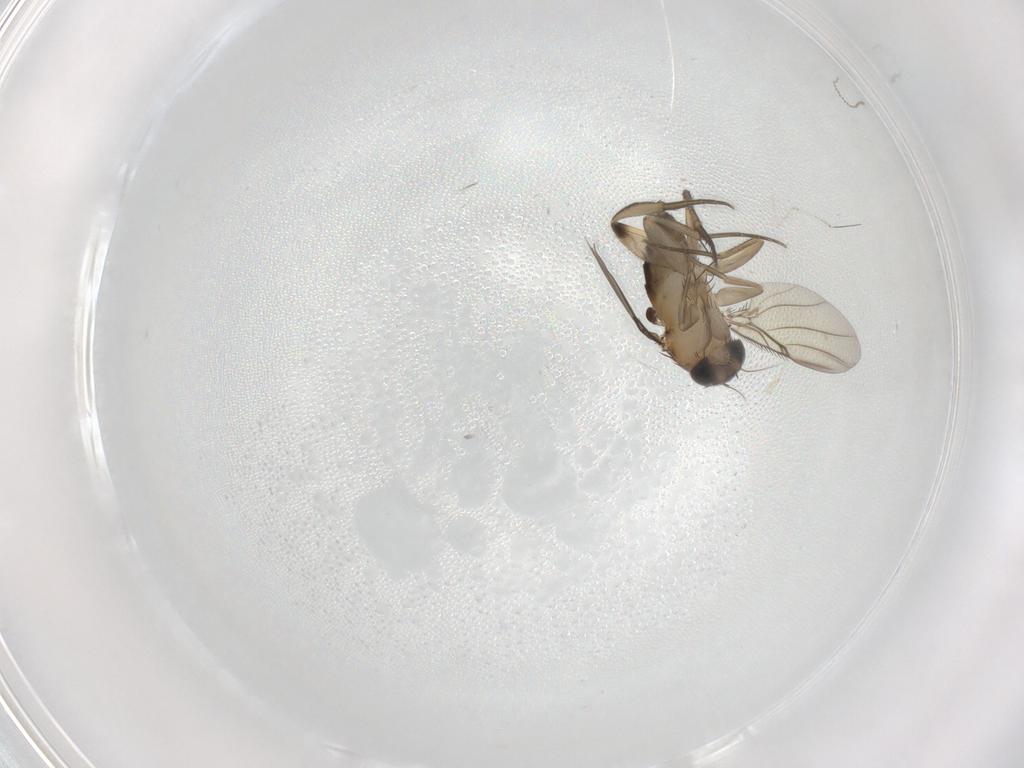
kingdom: Animalia
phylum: Arthropoda
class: Insecta
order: Diptera
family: Phoridae
